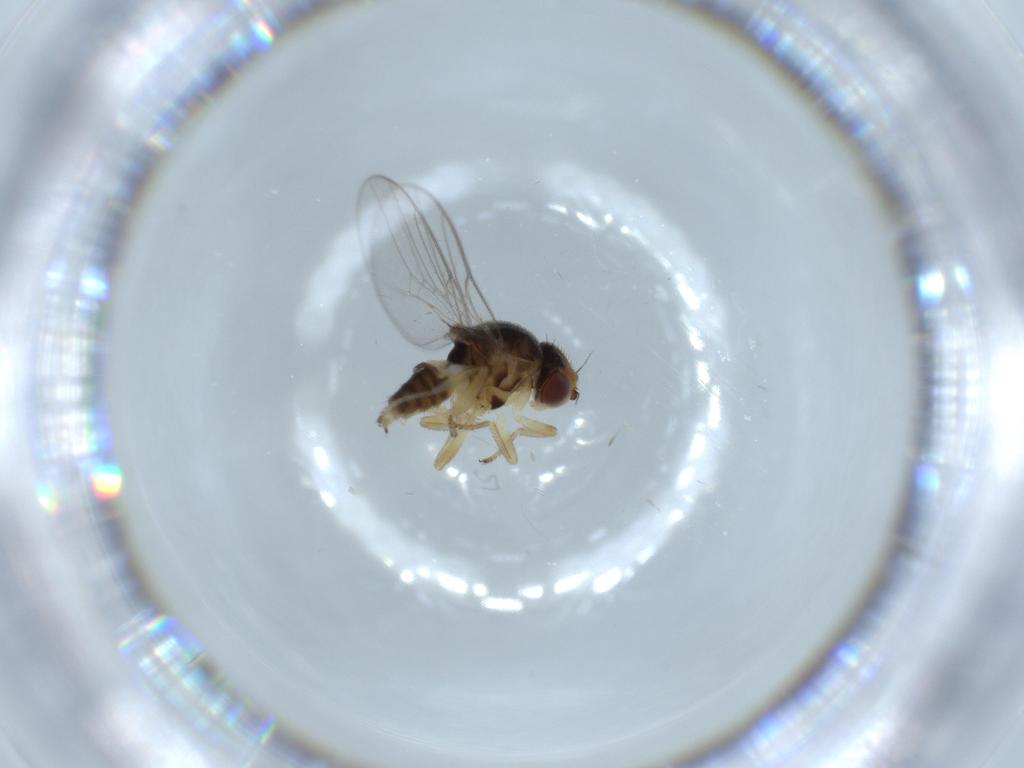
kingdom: Animalia
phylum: Arthropoda
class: Insecta
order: Diptera
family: Chloropidae
